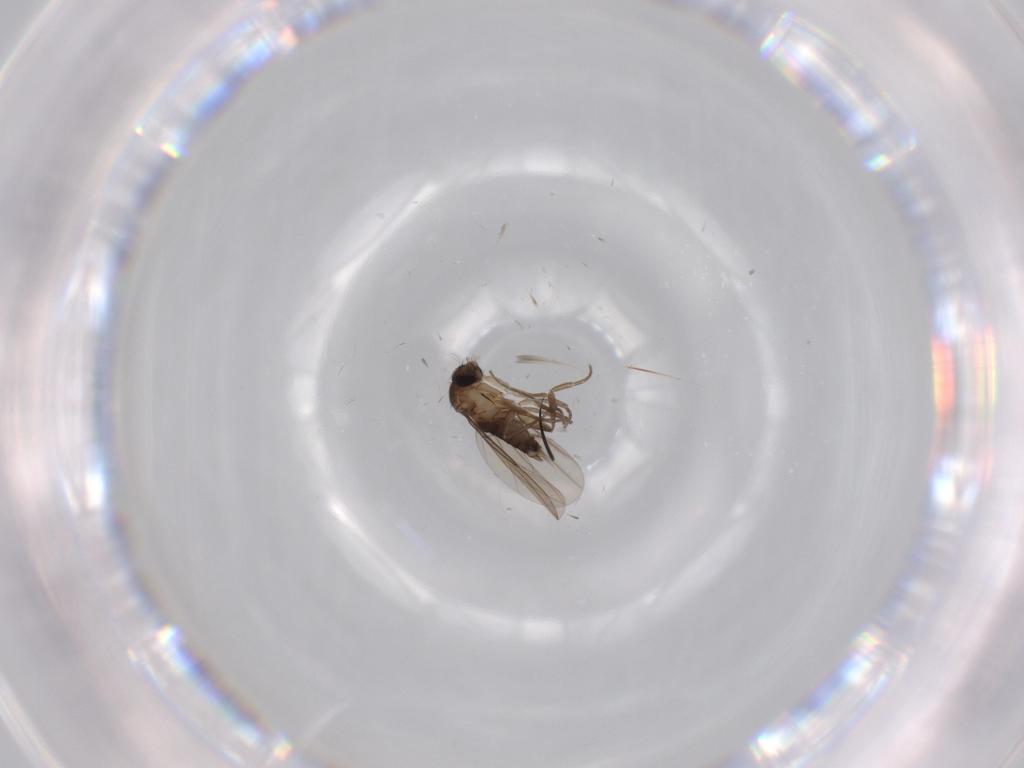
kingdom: Animalia
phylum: Arthropoda
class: Insecta
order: Diptera
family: Phoridae
